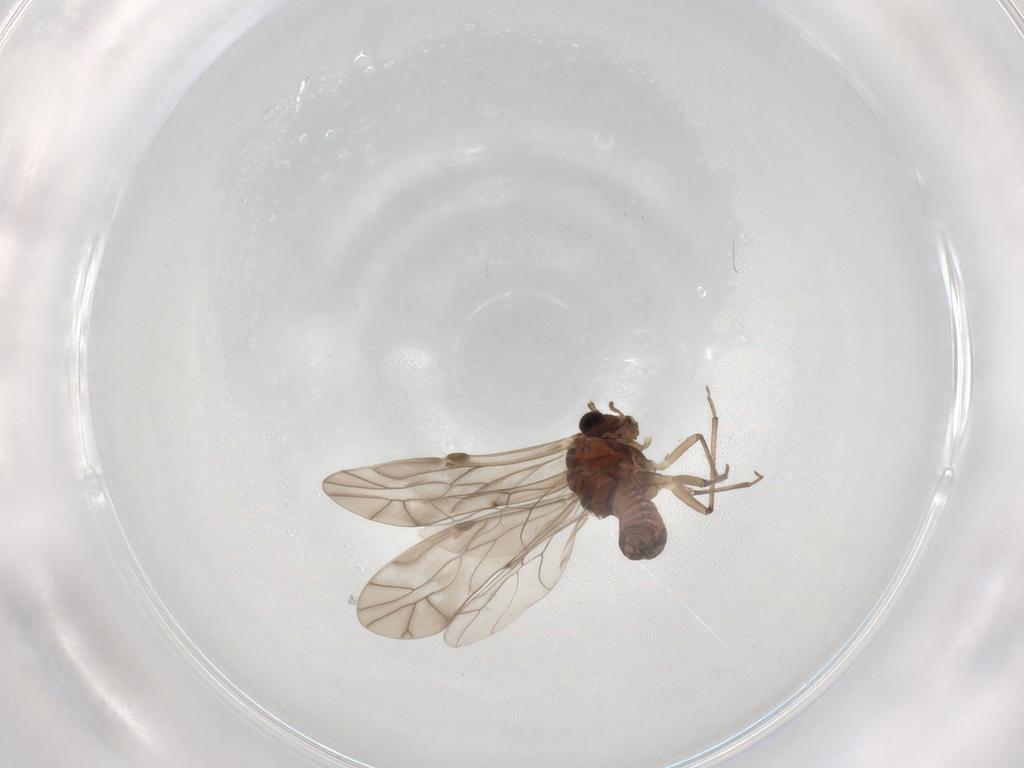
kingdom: Animalia
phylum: Arthropoda
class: Insecta
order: Psocodea
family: Peripsocidae
